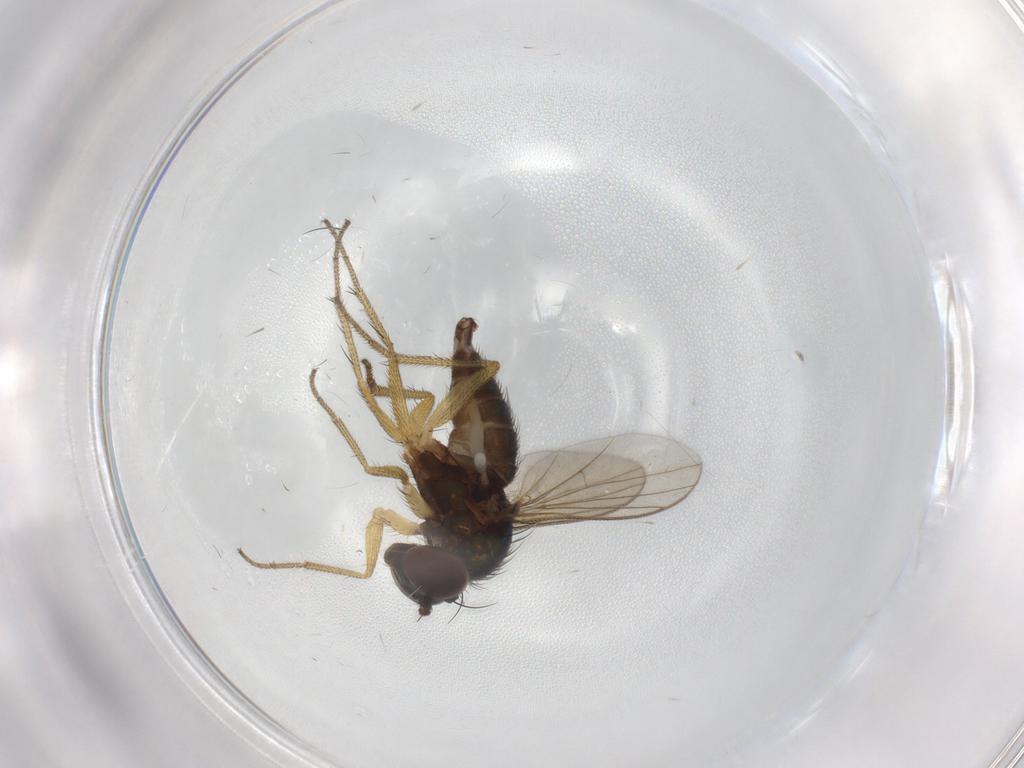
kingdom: Animalia
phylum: Arthropoda
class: Insecta
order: Diptera
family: Dolichopodidae
